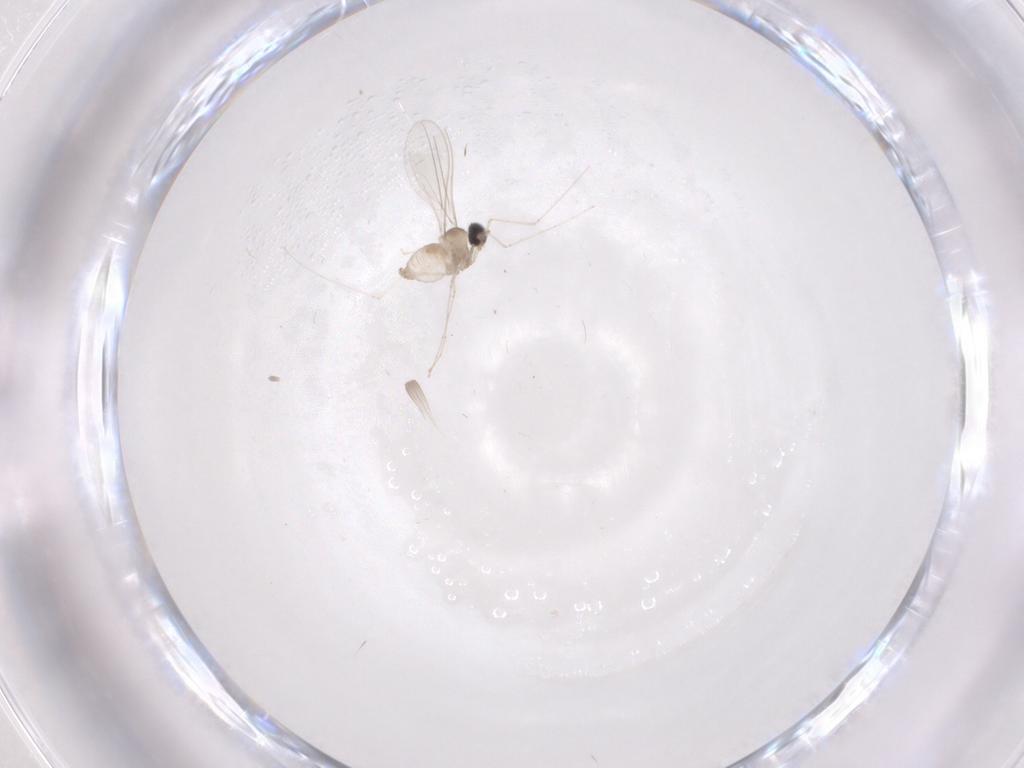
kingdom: Animalia
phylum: Arthropoda
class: Insecta
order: Diptera
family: Cecidomyiidae
